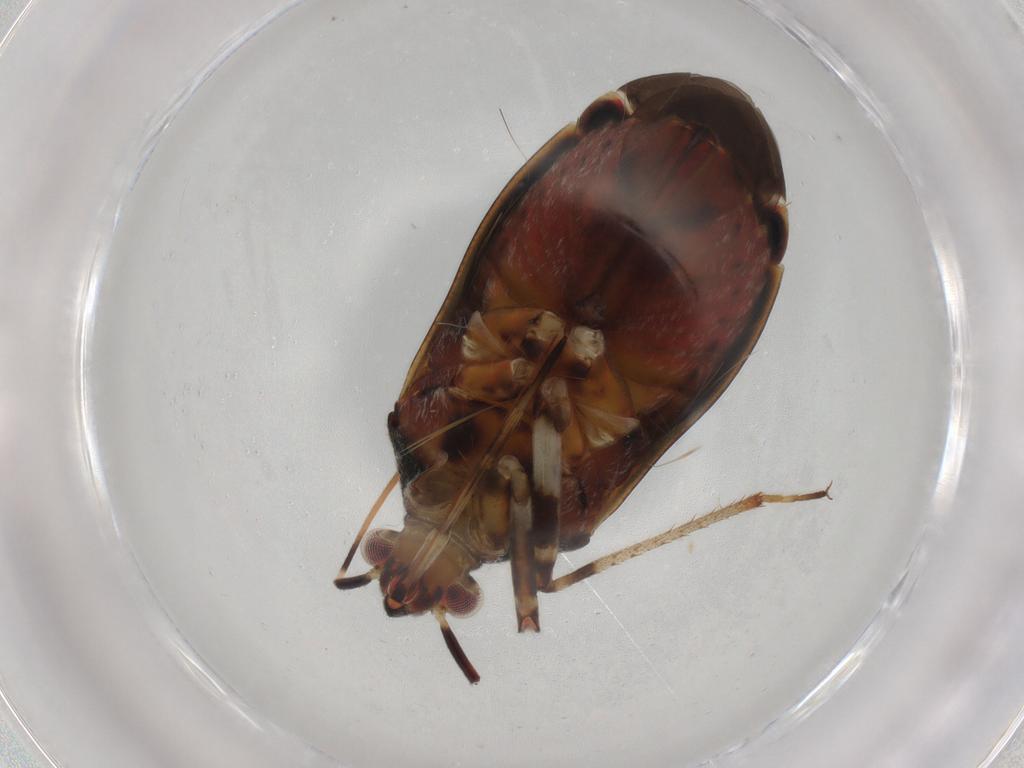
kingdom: Animalia
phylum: Arthropoda
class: Insecta
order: Hemiptera
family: Miridae
